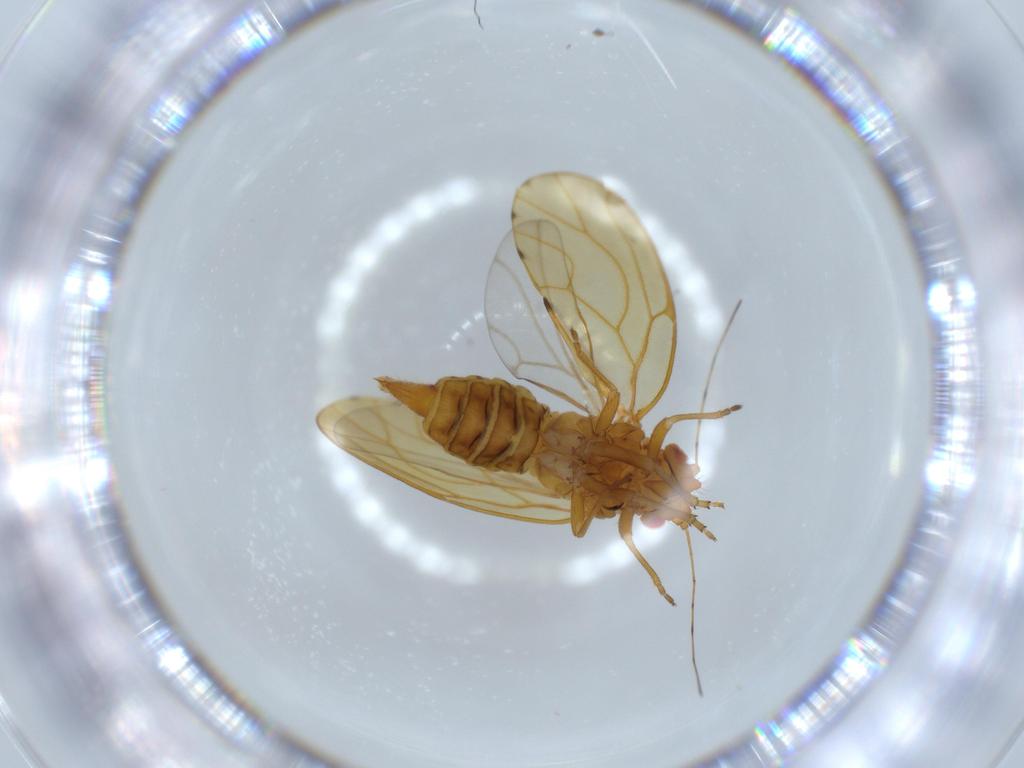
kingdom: Animalia
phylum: Arthropoda
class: Insecta
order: Hemiptera
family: Psylloidea_incertae_sedis
